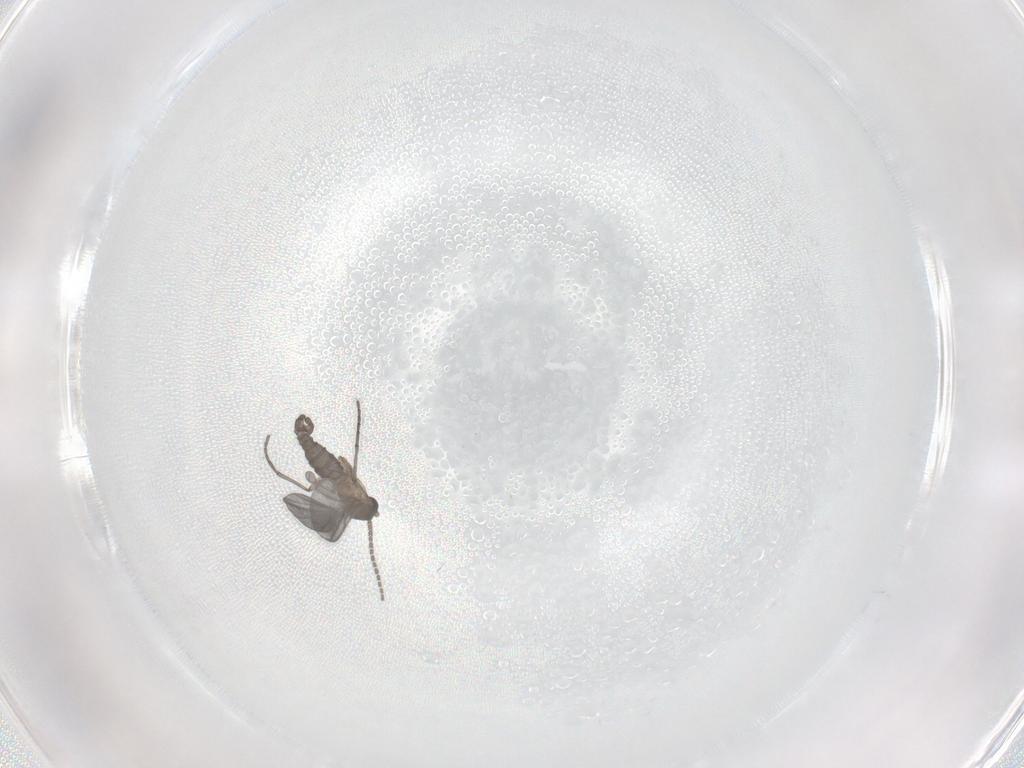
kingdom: Animalia
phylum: Arthropoda
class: Insecta
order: Diptera
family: Sciaridae
